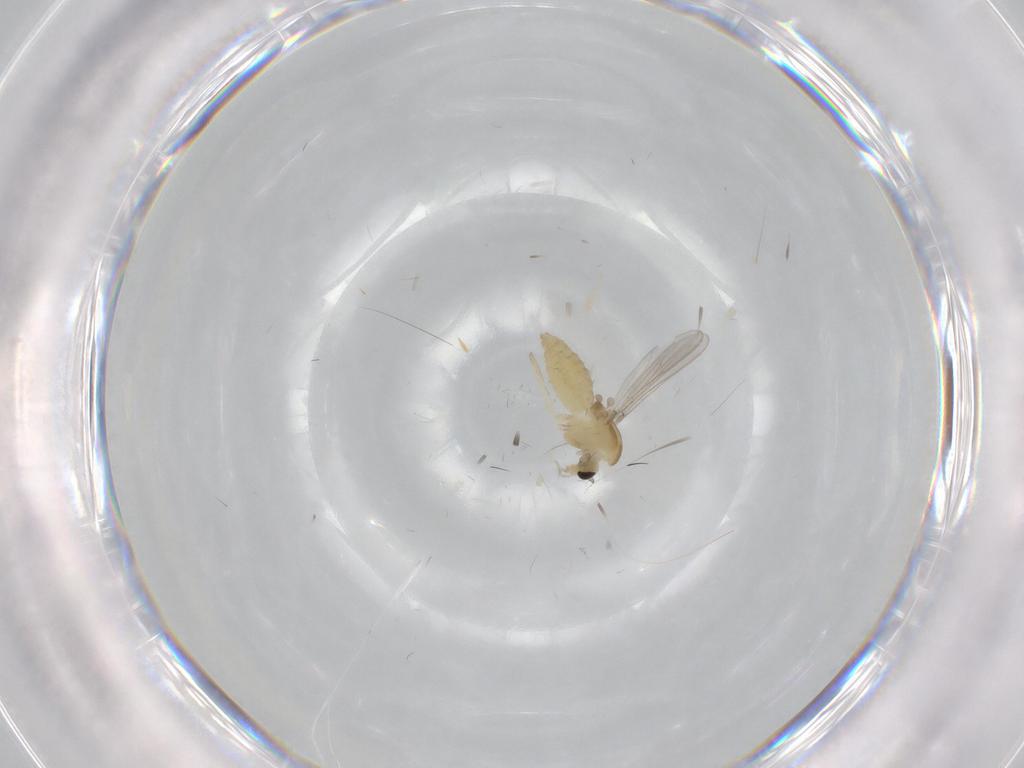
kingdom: Animalia
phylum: Arthropoda
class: Insecta
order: Diptera
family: Chironomidae
